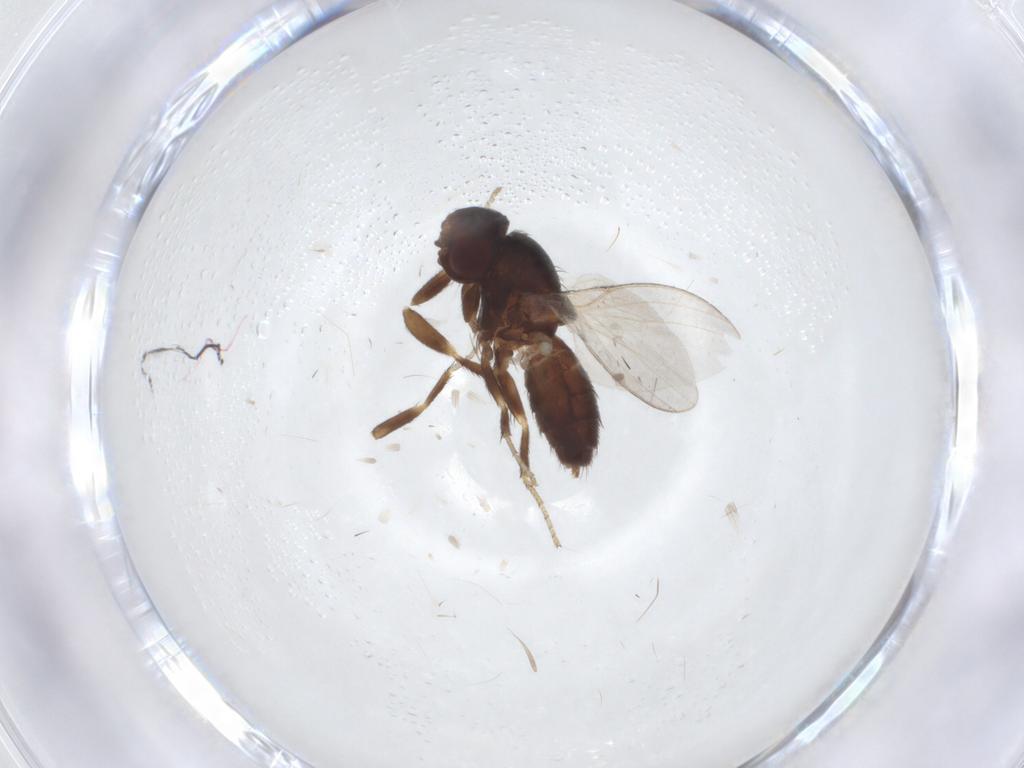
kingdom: Animalia
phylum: Arthropoda
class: Insecta
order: Diptera
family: Milichiidae
